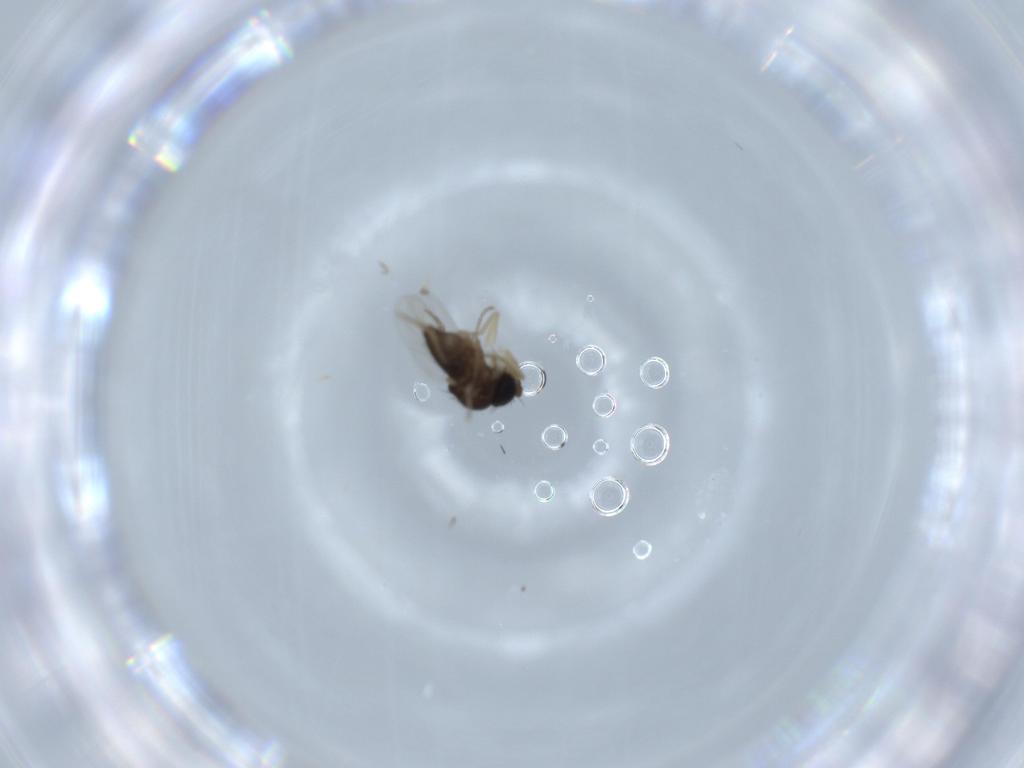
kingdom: Animalia
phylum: Arthropoda
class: Insecta
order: Diptera
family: Phoridae
